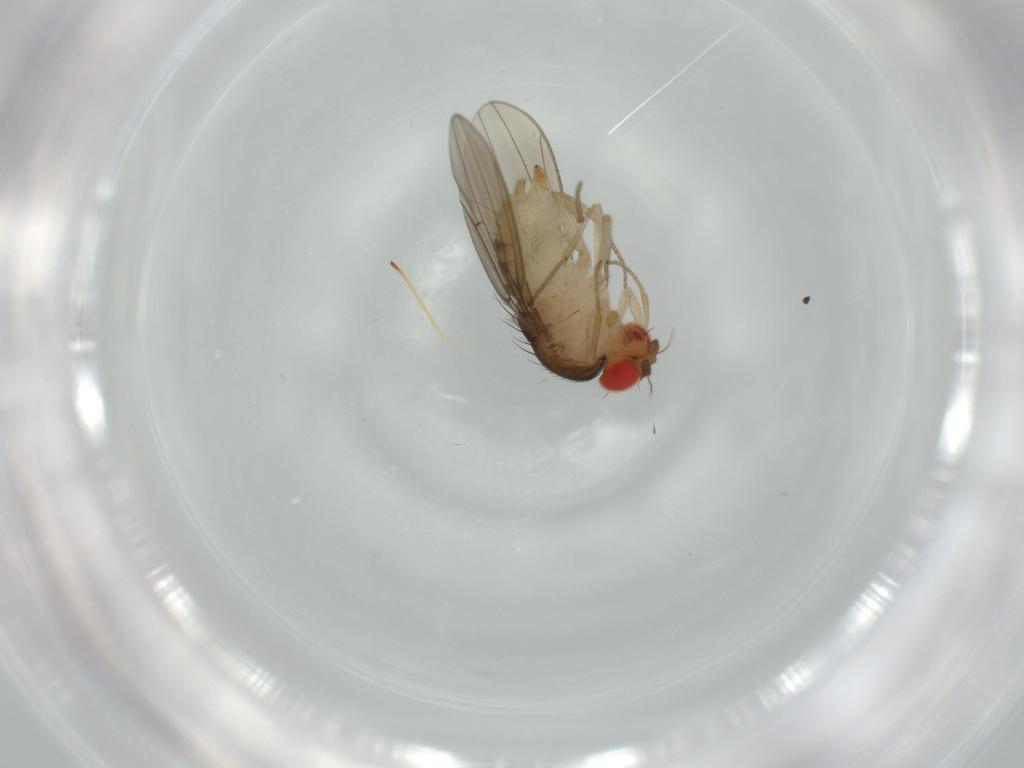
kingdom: Animalia
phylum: Arthropoda
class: Insecta
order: Diptera
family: Drosophilidae
